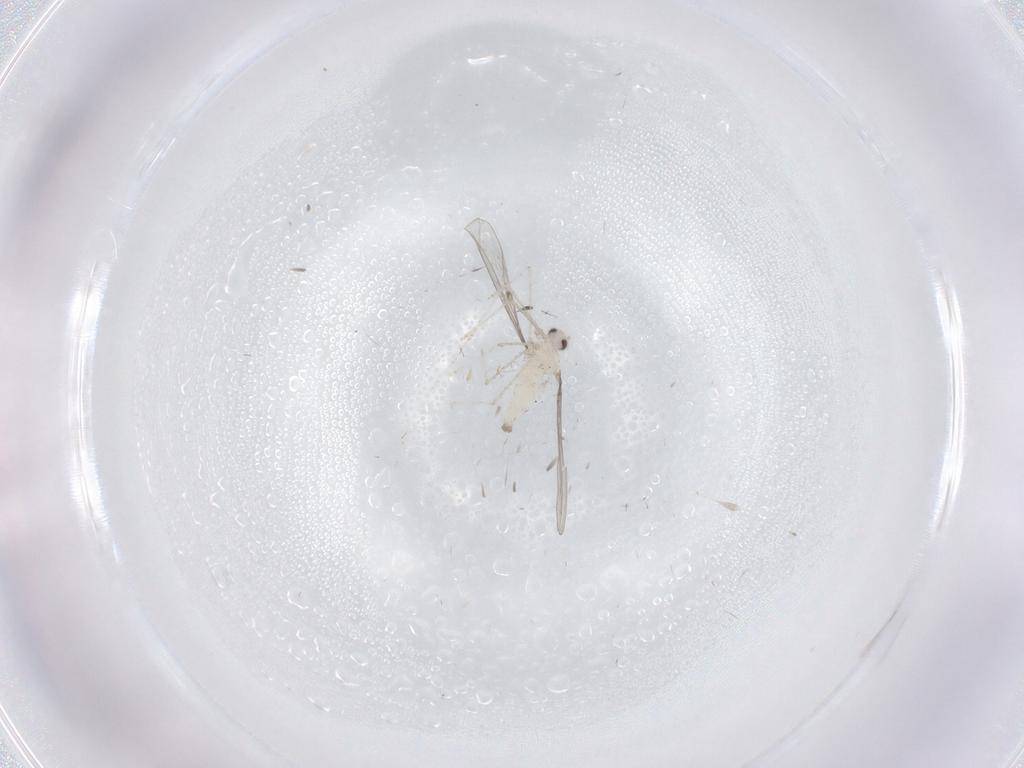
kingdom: Animalia
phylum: Arthropoda
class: Insecta
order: Diptera
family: Cecidomyiidae
